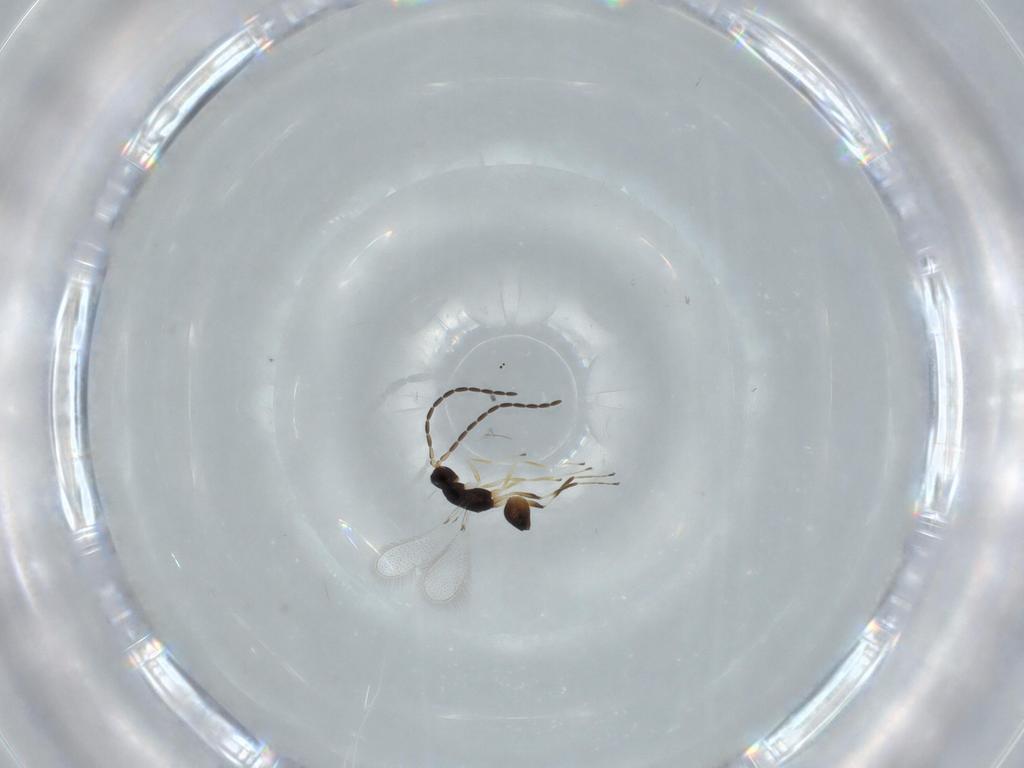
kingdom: Animalia
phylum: Arthropoda
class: Insecta
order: Hymenoptera
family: Mymaridae
